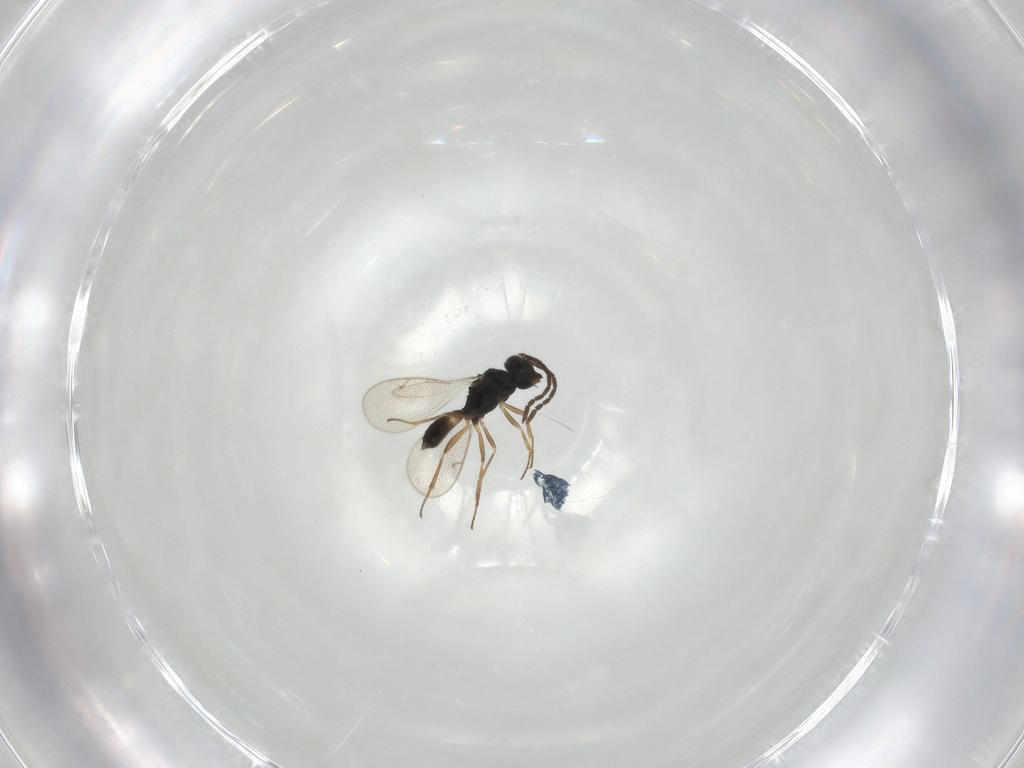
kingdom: Animalia
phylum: Arthropoda
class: Insecta
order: Hymenoptera
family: Pteromalidae
